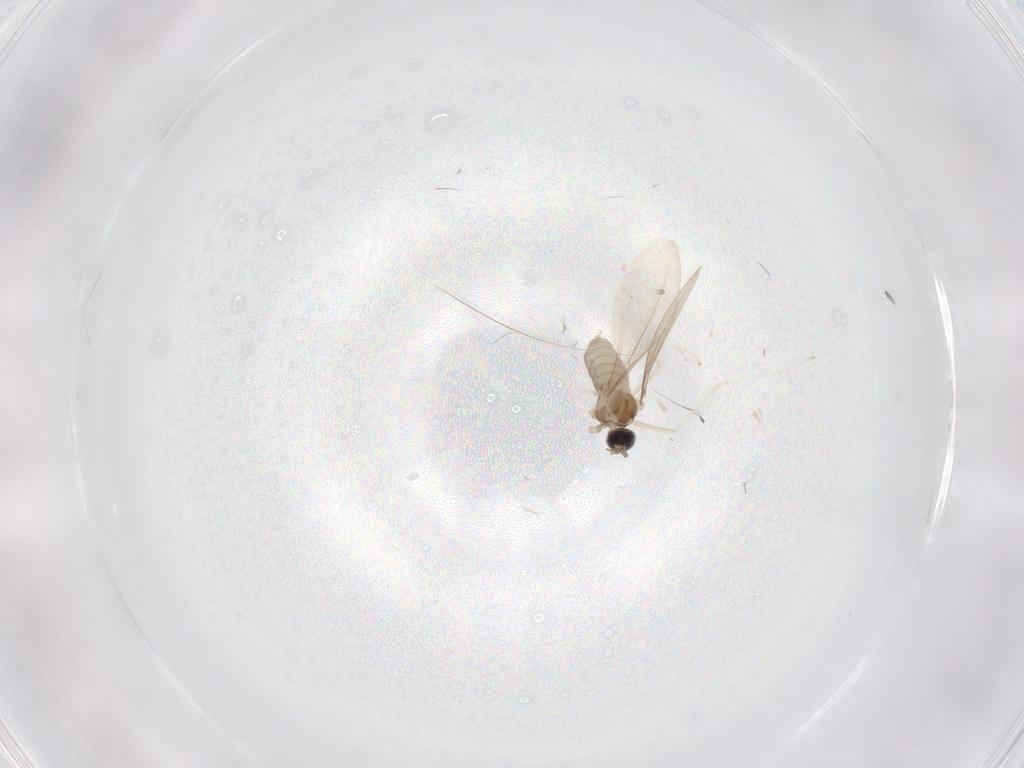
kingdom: Animalia
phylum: Arthropoda
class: Insecta
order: Diptera
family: Cecidomyiidae
